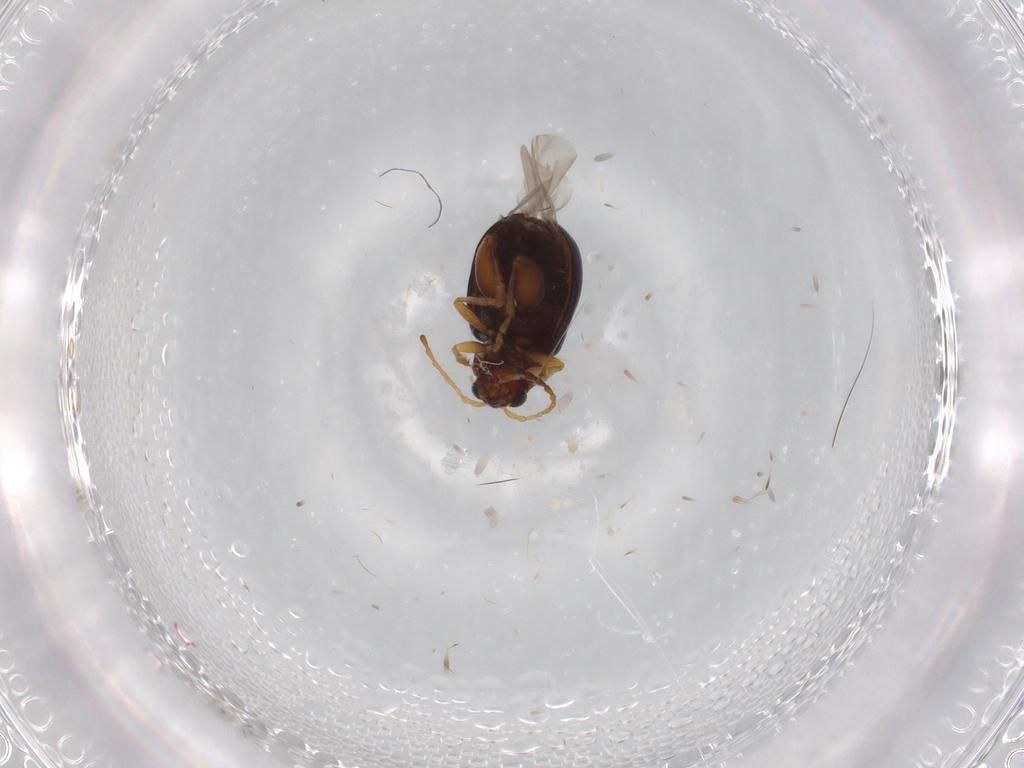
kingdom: Animalia
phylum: Arthropoda
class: Insecta
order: Coleoptera
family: Chrysomelidae
